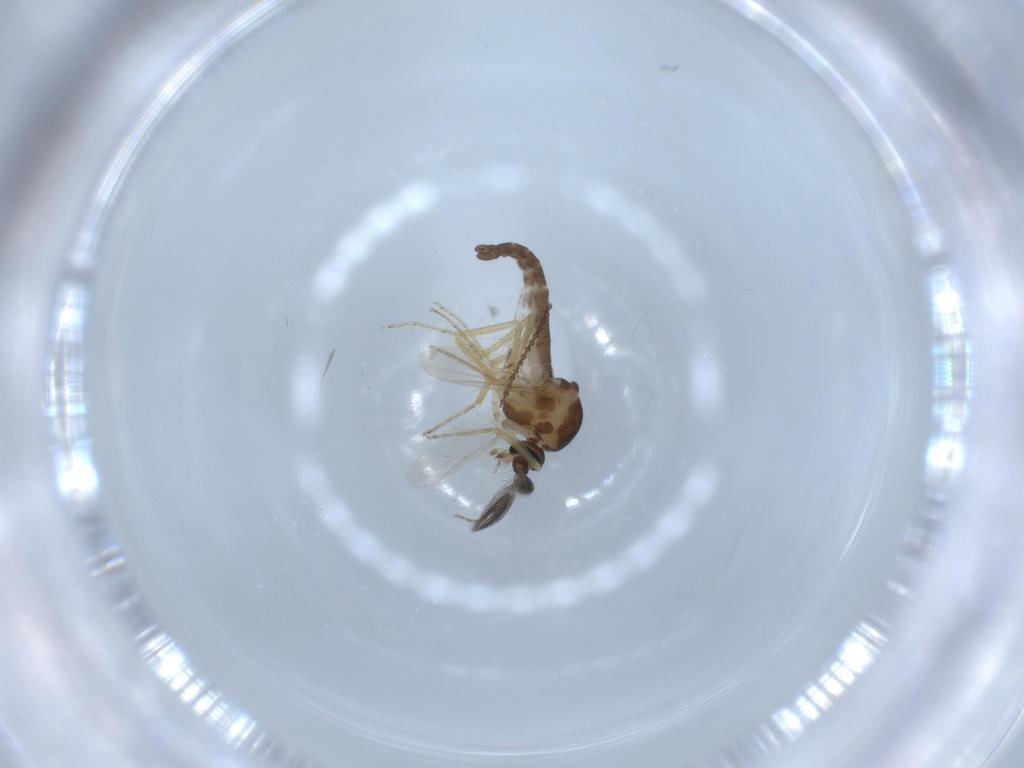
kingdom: Animalia
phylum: Arthropoda
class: Insecta
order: Diptera
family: Ceratopogonidae
